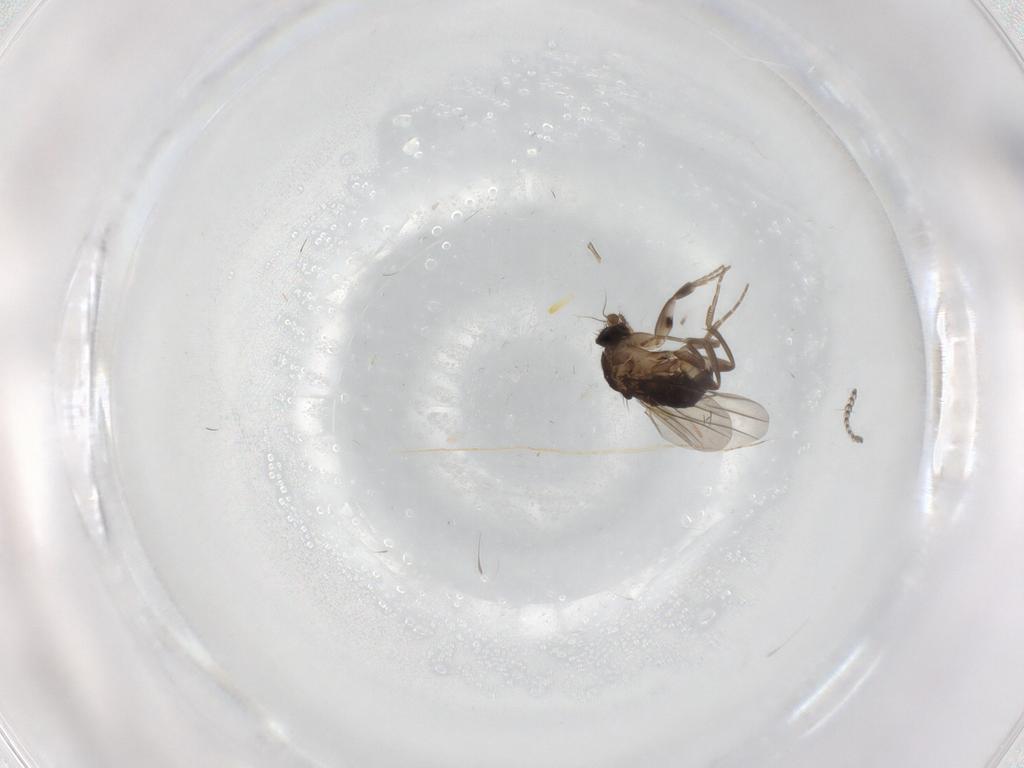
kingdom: Animalia
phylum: Arthropoda
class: Insecta
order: Diptera
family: Phoridae
